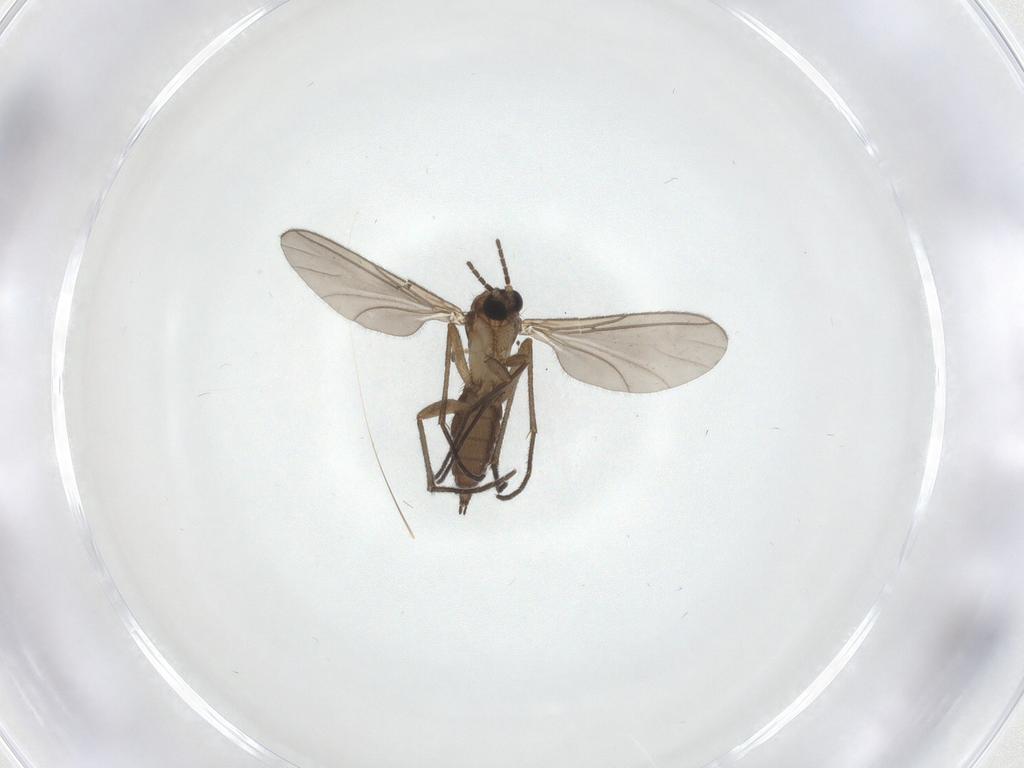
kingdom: Animalia
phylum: Arthropoda
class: Insecta
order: Diptera
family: Sciaridae
